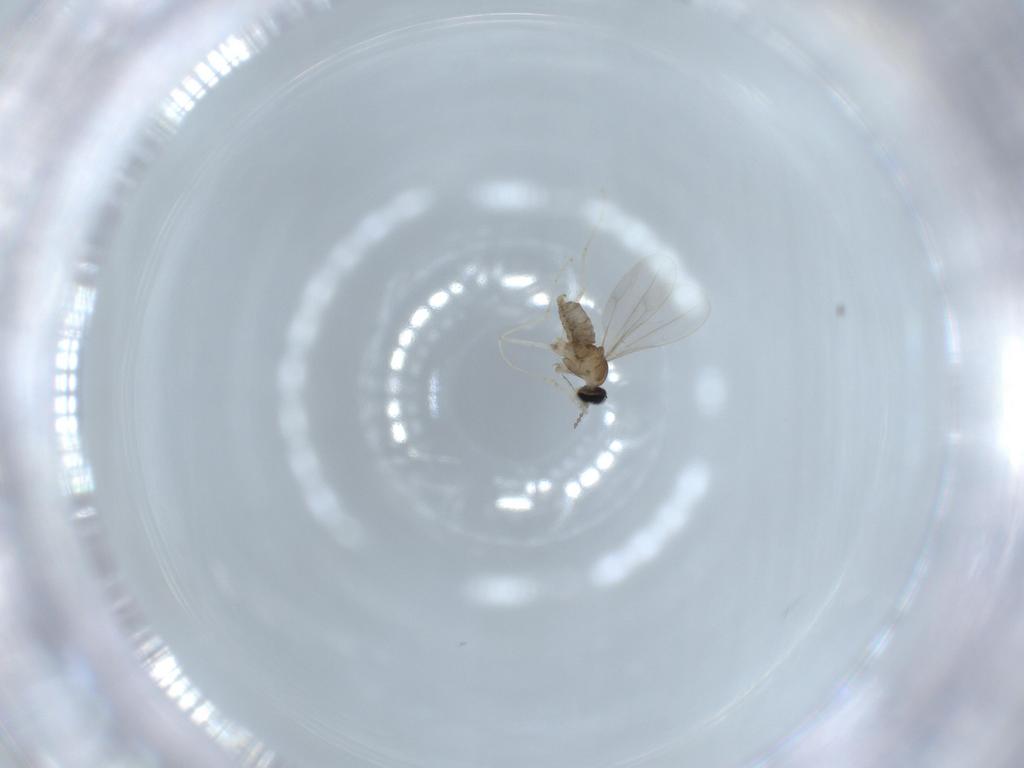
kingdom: Animalia
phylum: Arthropoda
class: Insecta
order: Diptera
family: Cecidomyiidae
